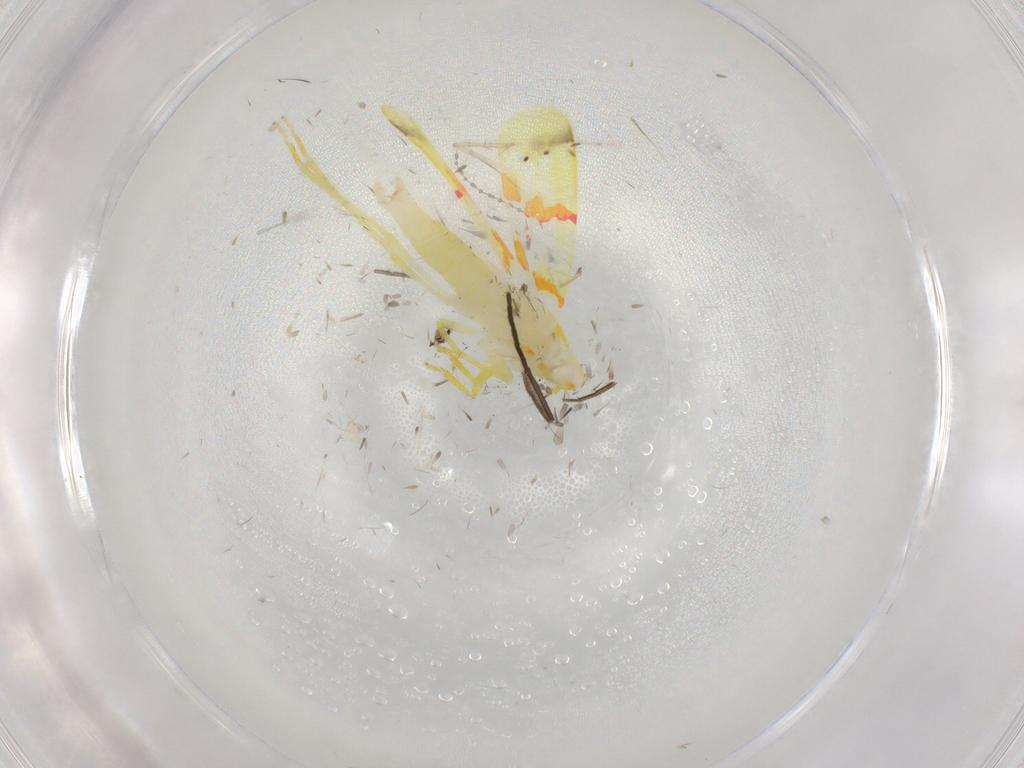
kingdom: Animalia
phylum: Arthropoda
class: Insecta
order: Hemiptera
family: Cicadellidae
